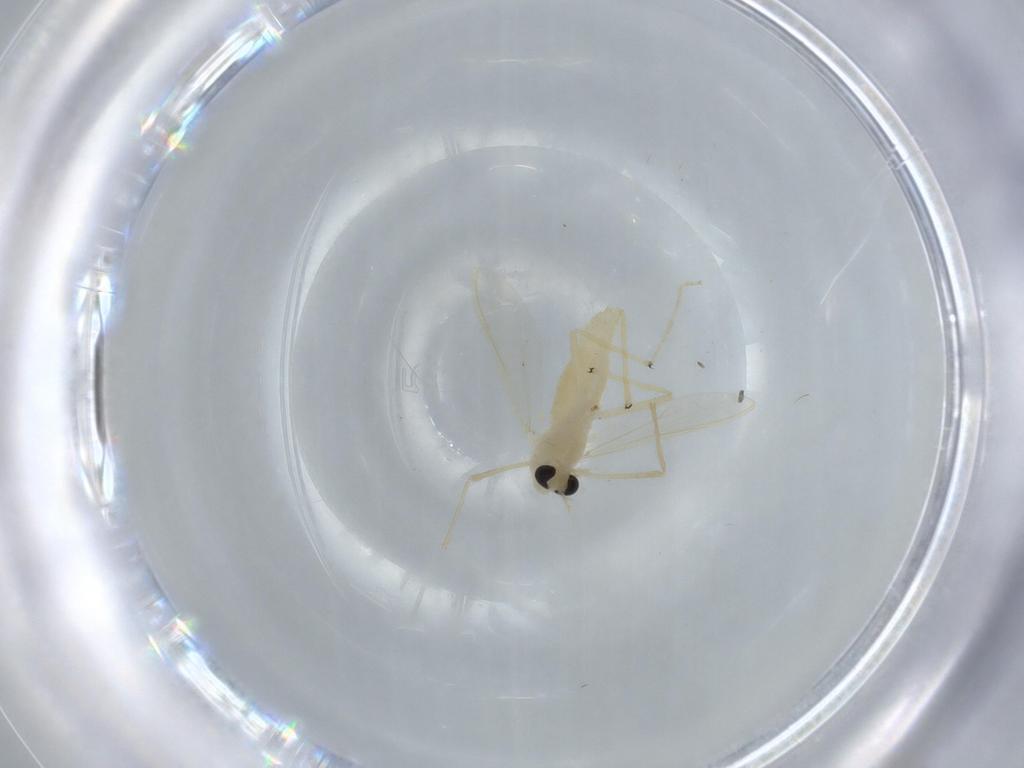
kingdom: Animalia
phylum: Arthropoda
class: Insecta
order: Diptera
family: Chironomidae
